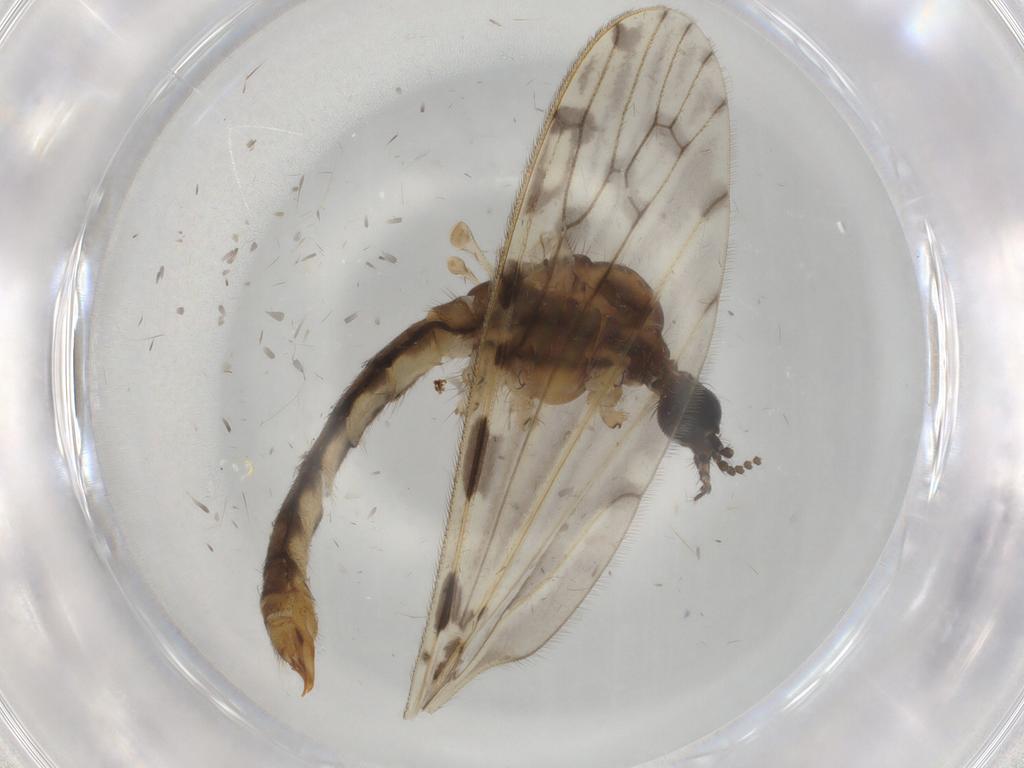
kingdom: Animalia
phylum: Arthropoda
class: Insecta
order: Diptera
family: Limoniidae
